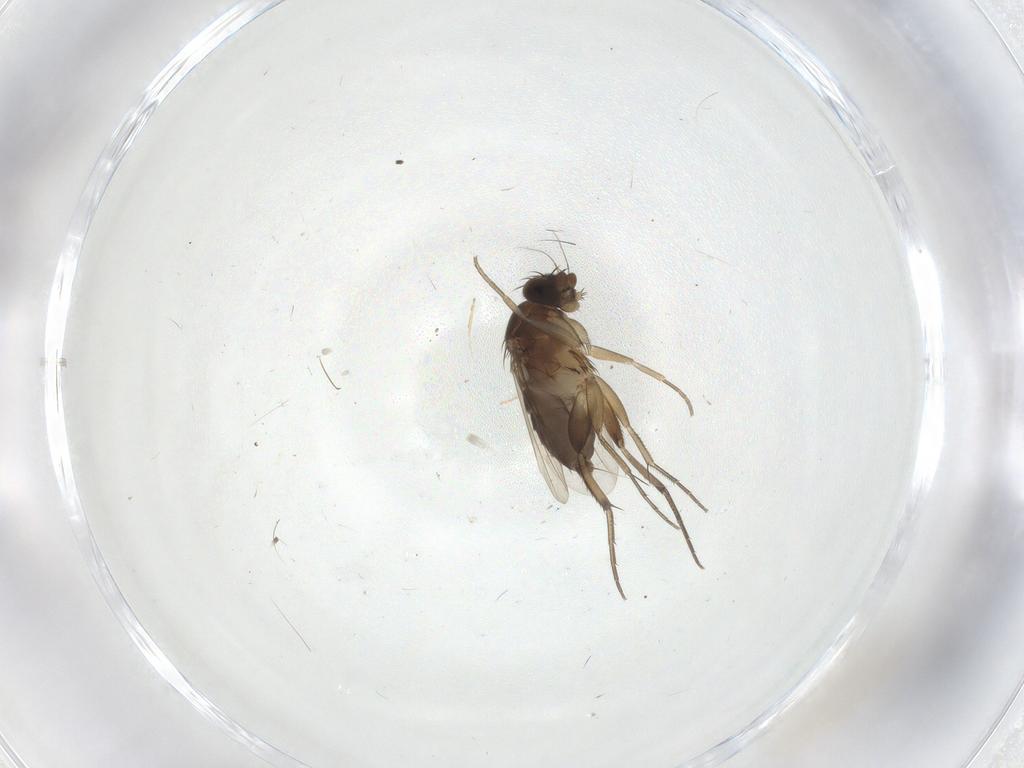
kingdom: Animalia
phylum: Arthropoda
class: Insecta
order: Diptera
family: Phoridae
